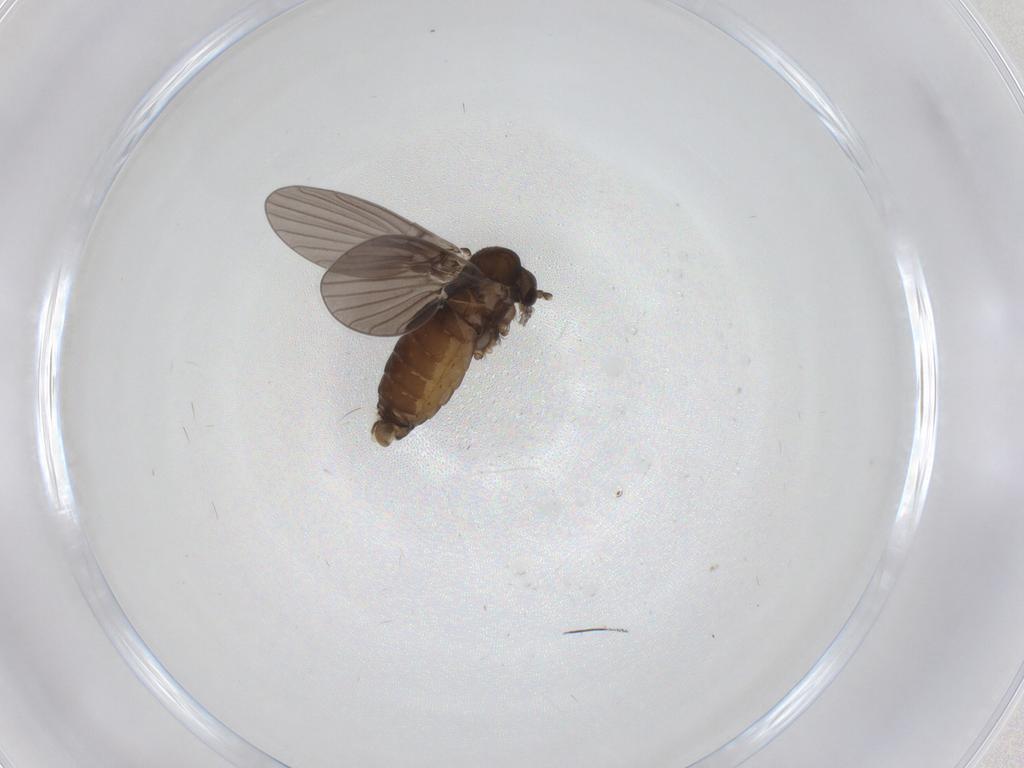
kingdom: Animalia
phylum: Arthropoda
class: Insecta
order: Diptera
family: Psychodidae
